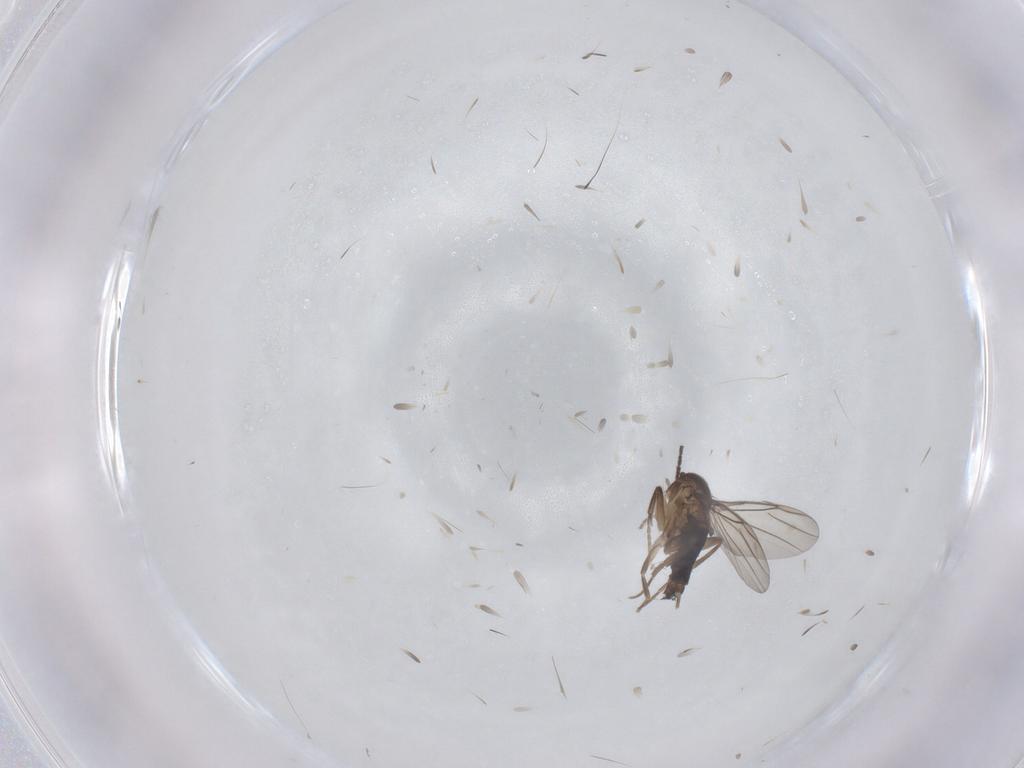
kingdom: Animalia
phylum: Arthropoda
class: Insecta
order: Diptera
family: Phoridae
